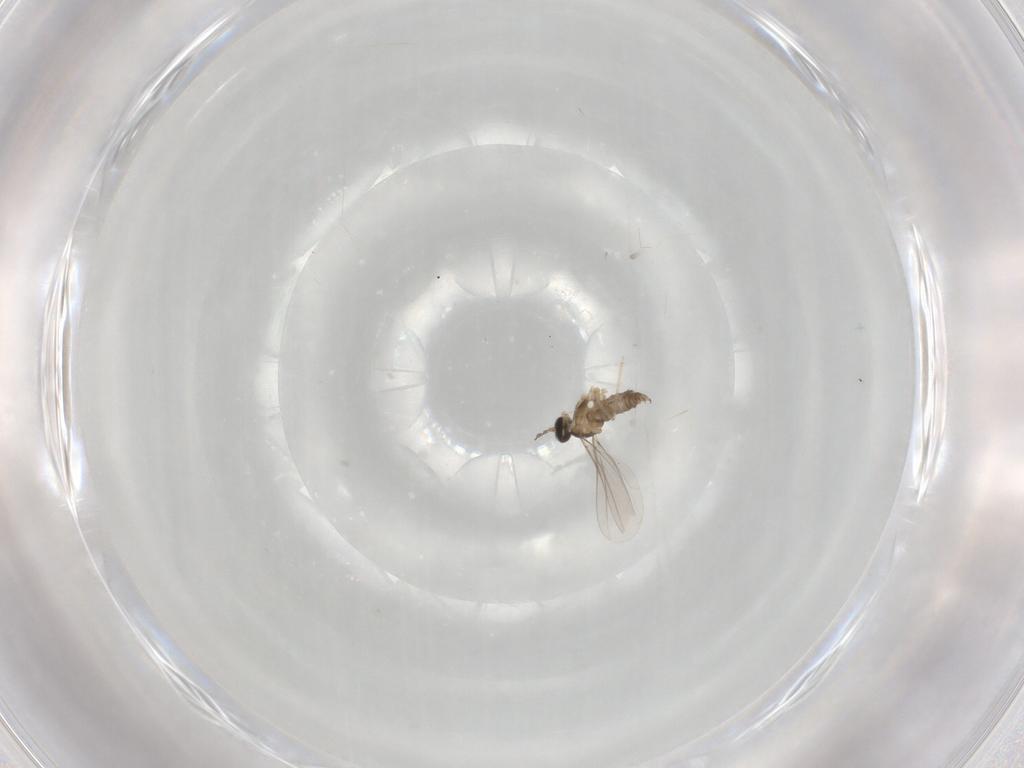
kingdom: Animalia
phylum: Arthropoda
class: Insecta
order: Diptera
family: Cecidomyiidae
